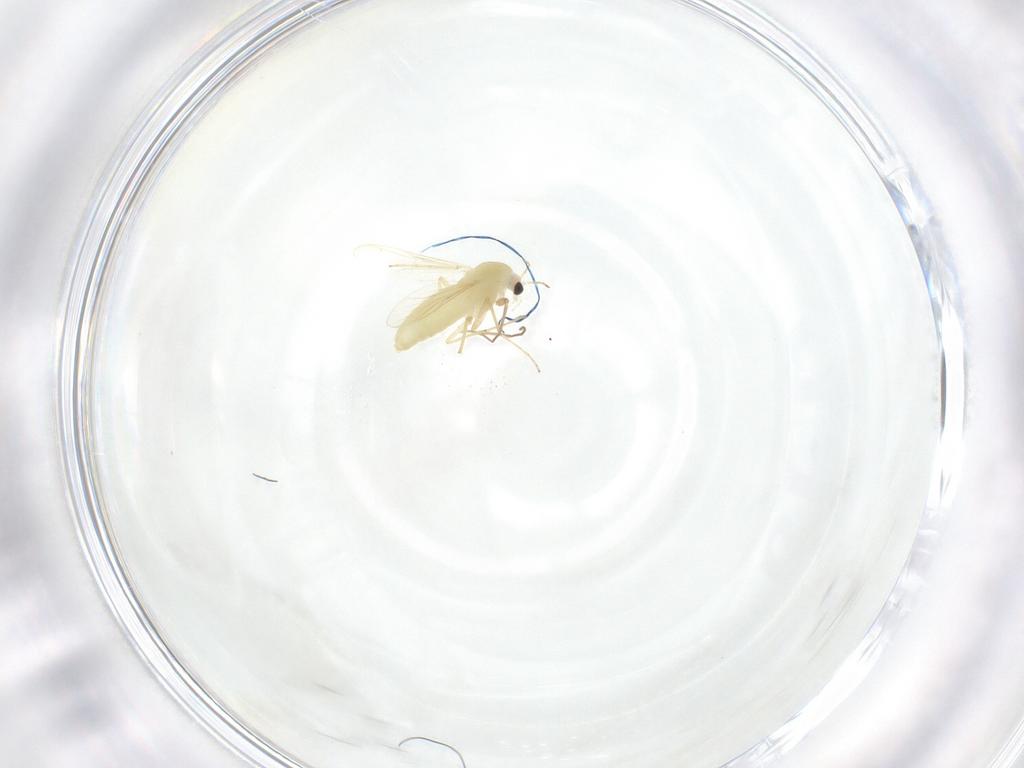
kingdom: Animalia
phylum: Arthropoda
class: Insecta
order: Diptera
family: Chironomidae
